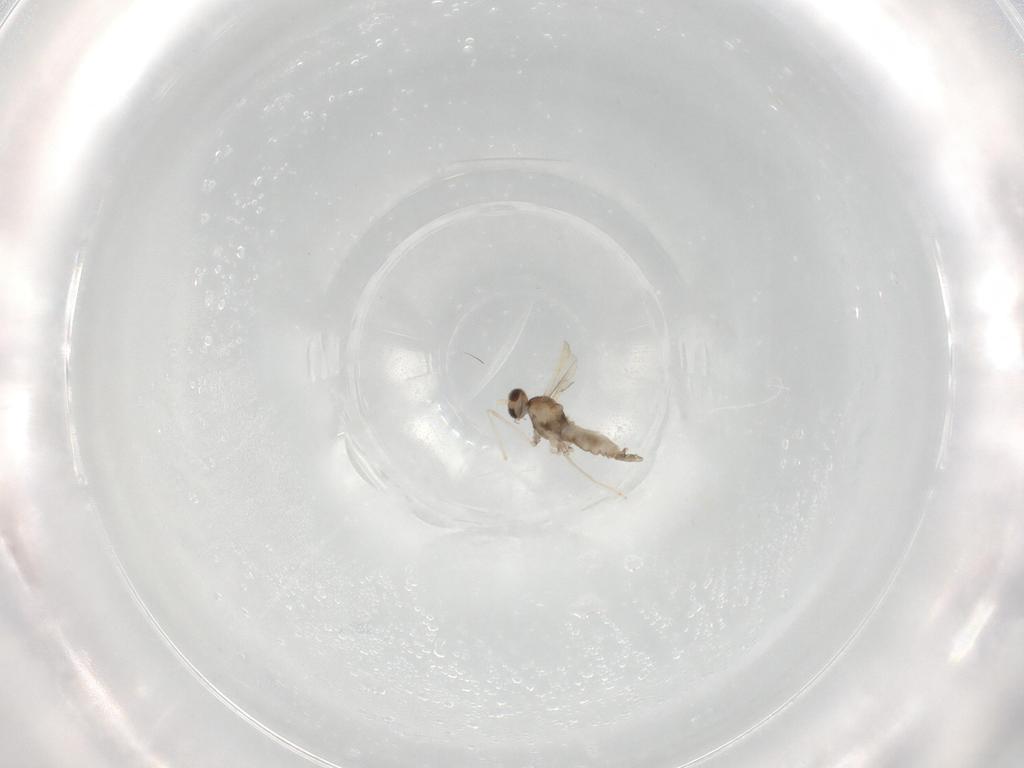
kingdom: Animalia
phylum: Arthropoda
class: Insecta
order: Diptera
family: Cecidomyiidae
